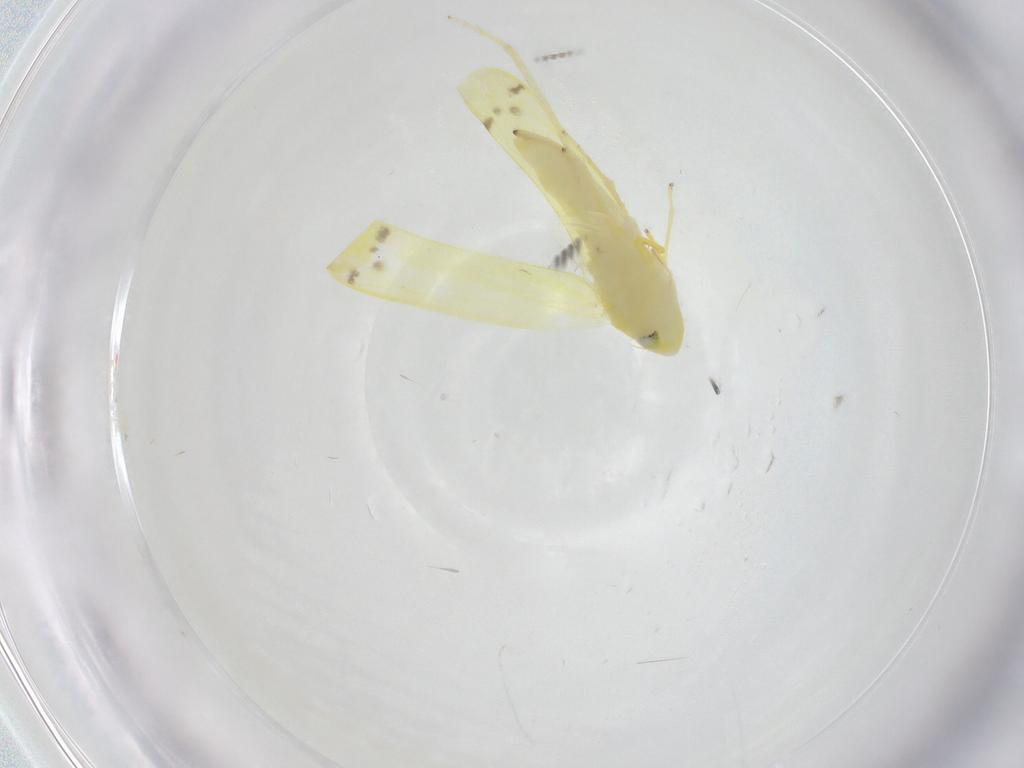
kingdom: Animalia
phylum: Arthropoda
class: Insecta
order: Hemiptera
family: Cicadellidae
